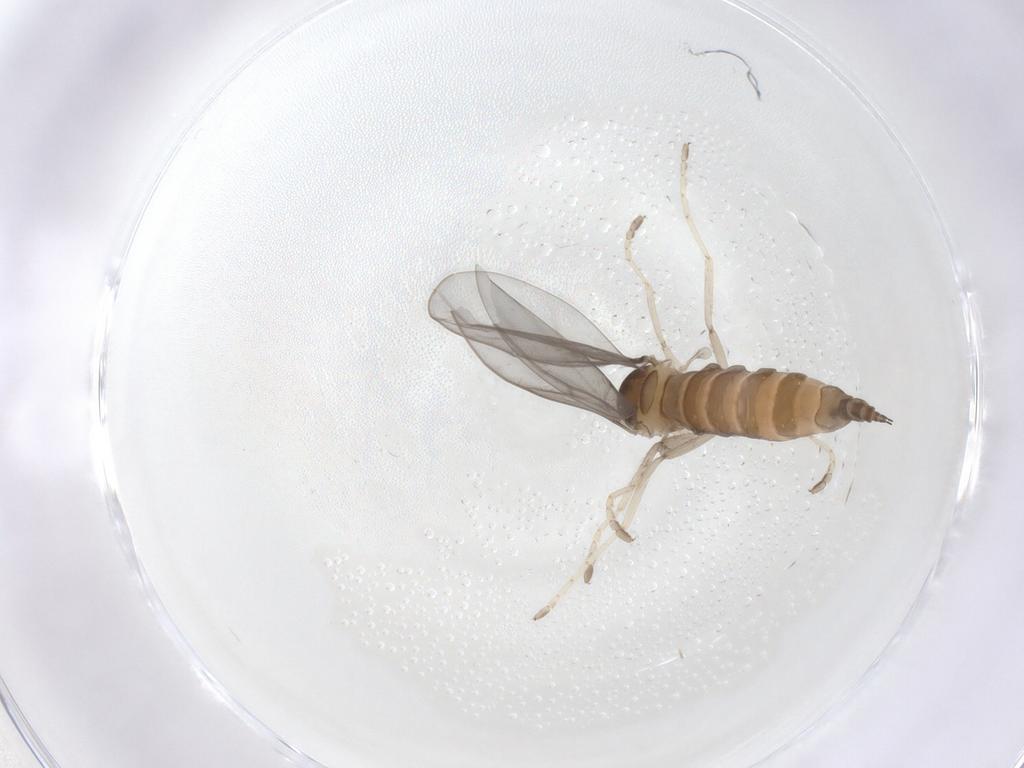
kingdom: Animalia
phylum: Arthropoda
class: Insecta
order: Diptera
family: Cecidomyiidae
